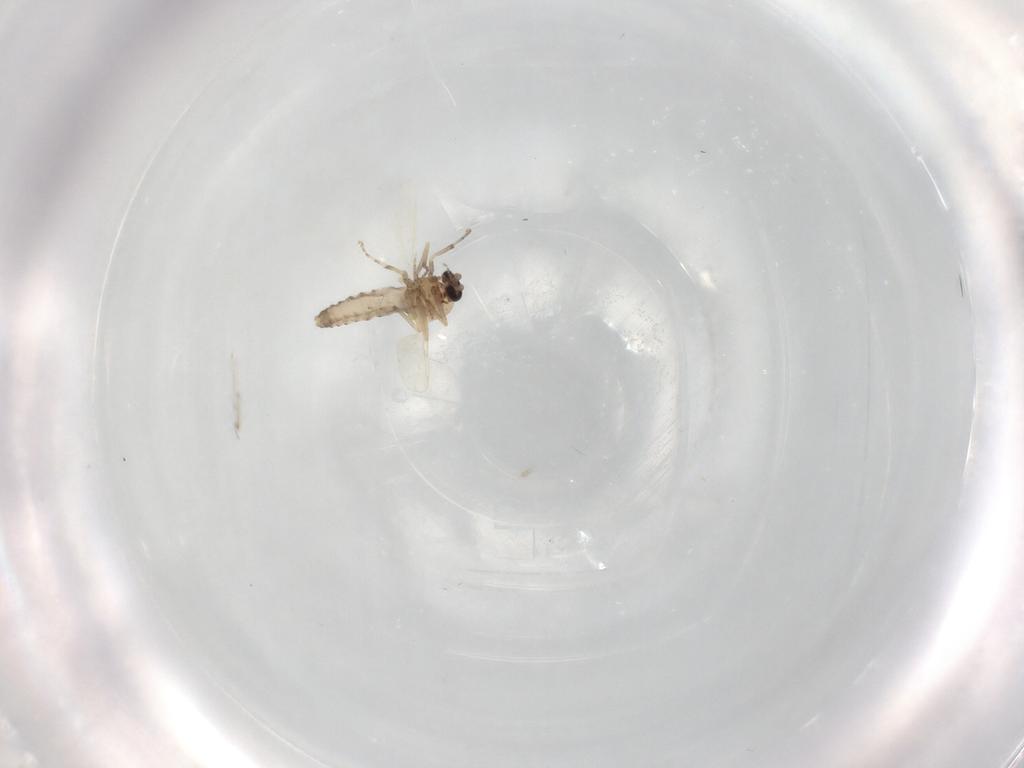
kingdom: Animalia
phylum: Arthropoda
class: Insecta
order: Diptera
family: Ceratopogonidae
